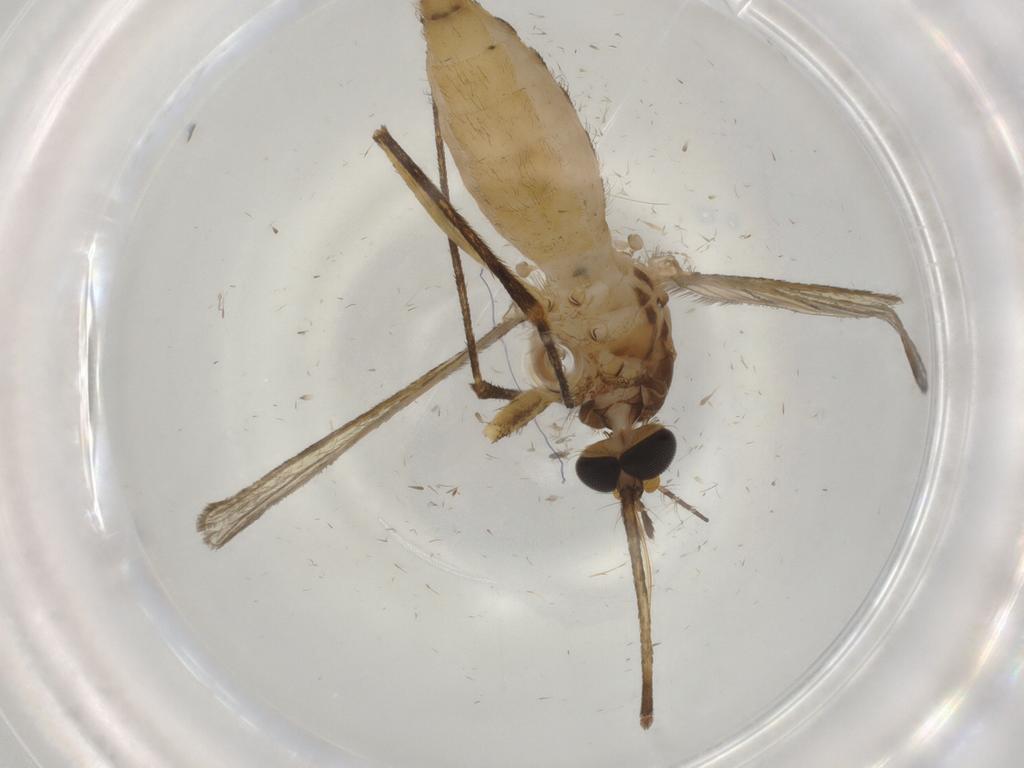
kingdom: Animalia
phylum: Arthropoda
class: Insecta
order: Diptera
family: Culicidae
